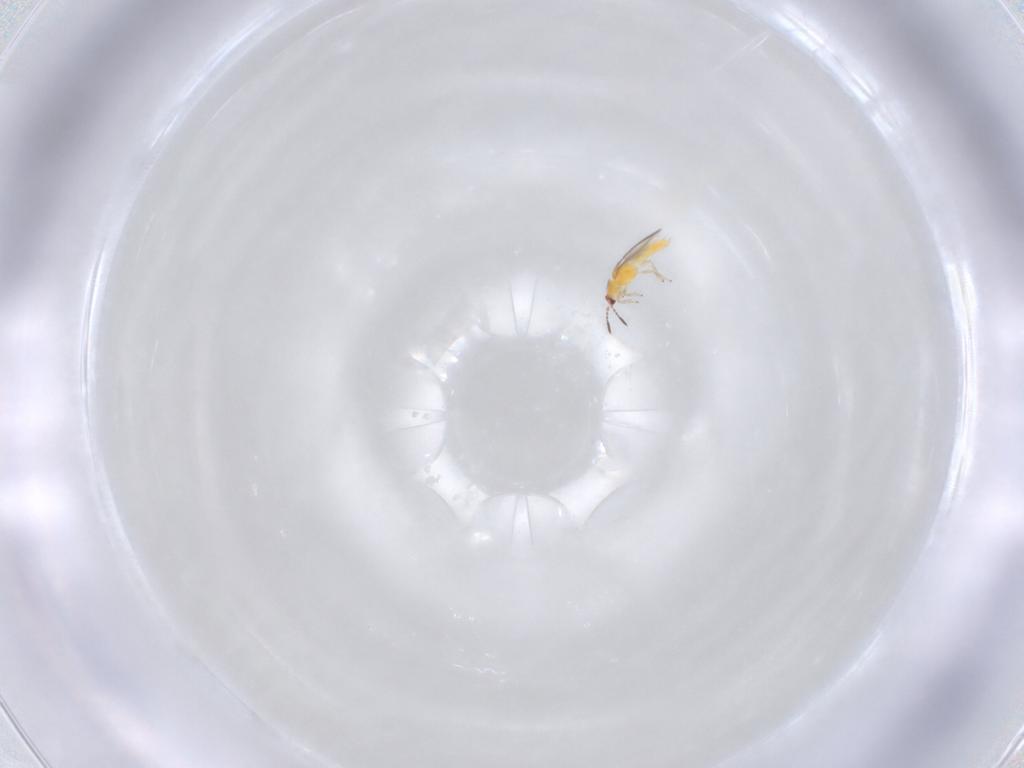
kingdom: Animalia
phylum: Arthropoda
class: Insecta
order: Thysanoptera
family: Thripidae
